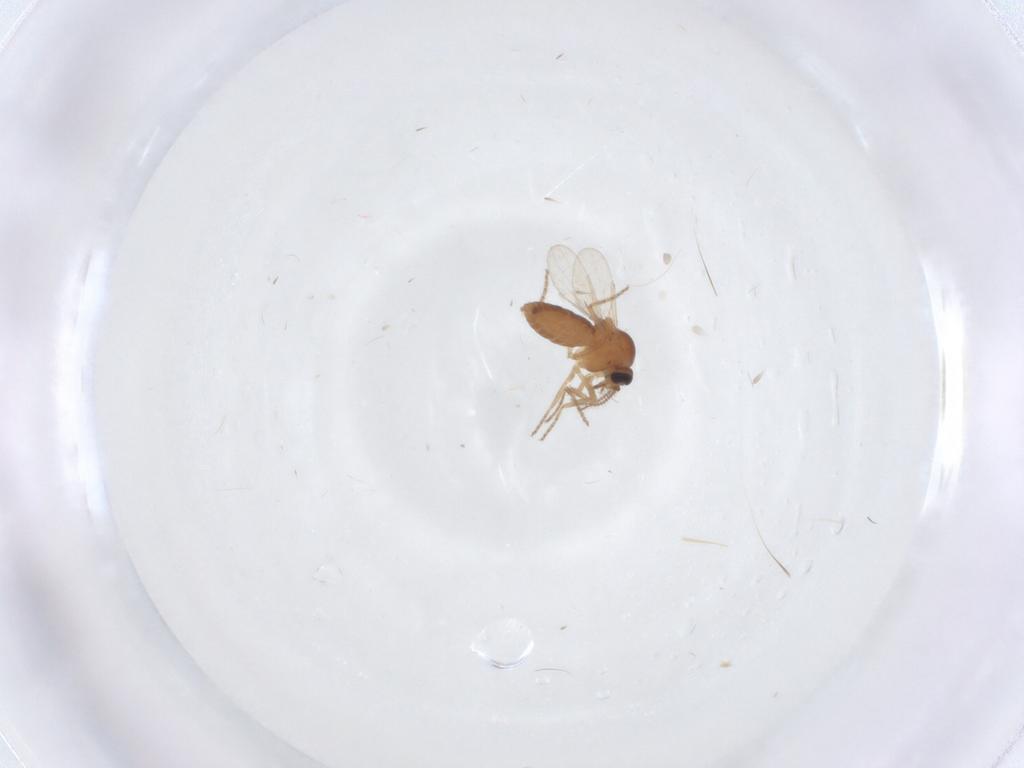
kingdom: Animalia
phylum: Arthropoda
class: Insecta
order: Diptera
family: Ceratopogonidae
